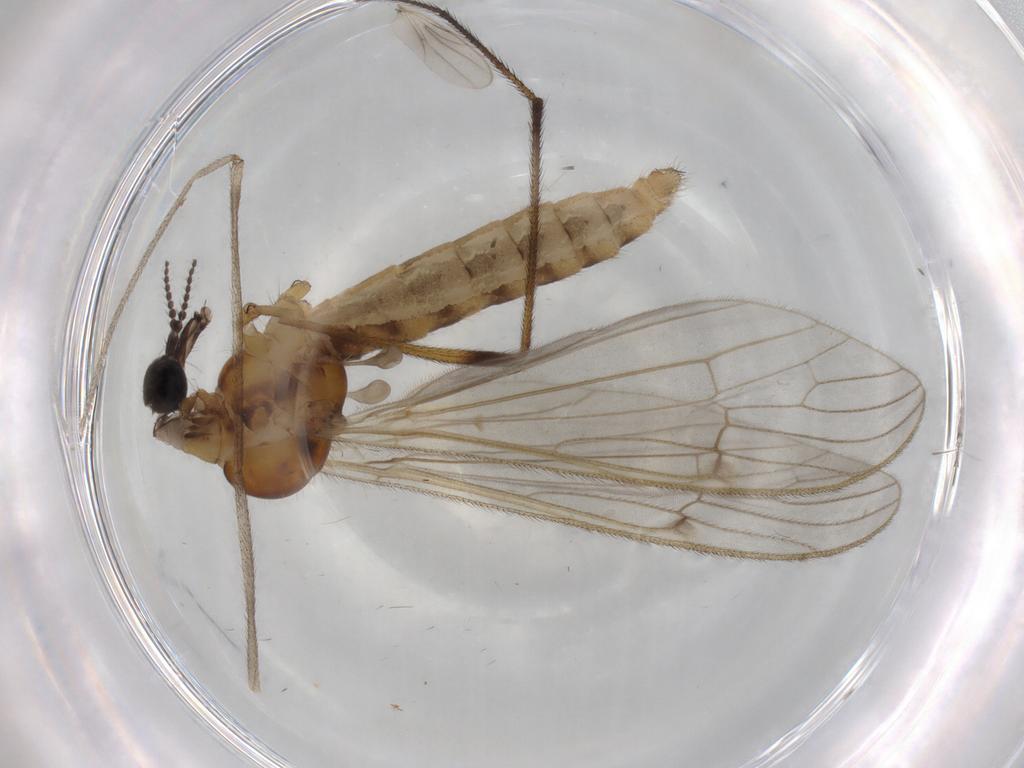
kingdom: Animalia
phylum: Arthropoda
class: Insecta
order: Diptera
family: Phoridae
